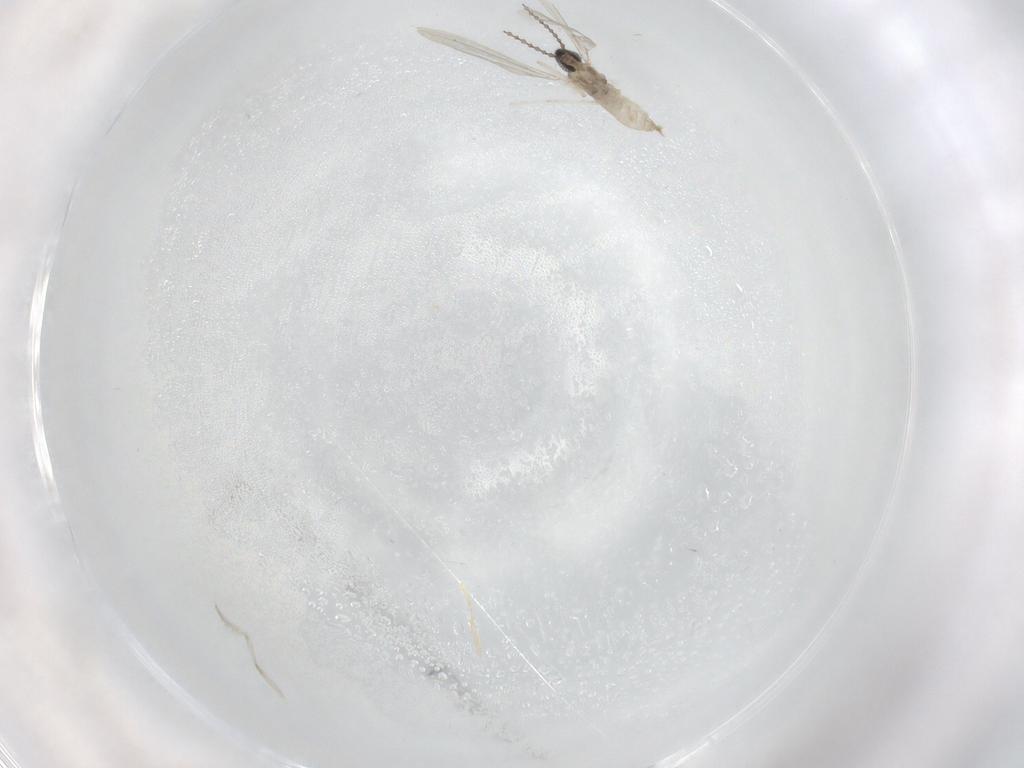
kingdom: Animalia
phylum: Arthropoda
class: Insecta
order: Diptera
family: Cecidomyiidae
